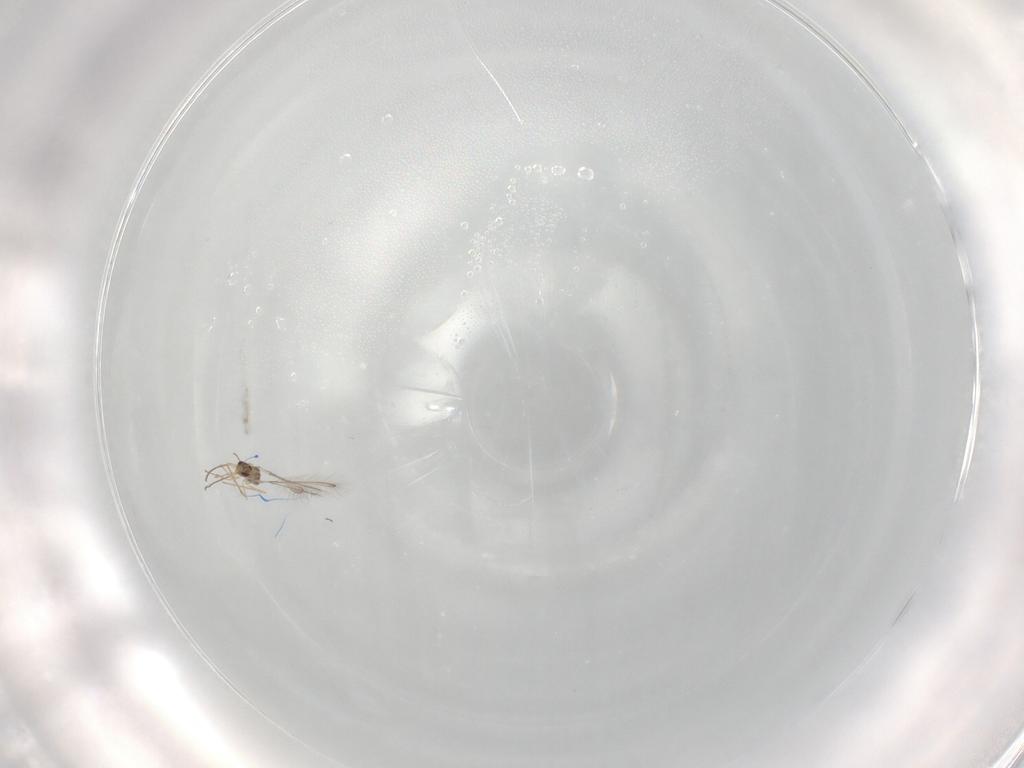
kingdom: Animalia
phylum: Arthropoda
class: Insecta
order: Hymenoptera
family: Mymaridae
